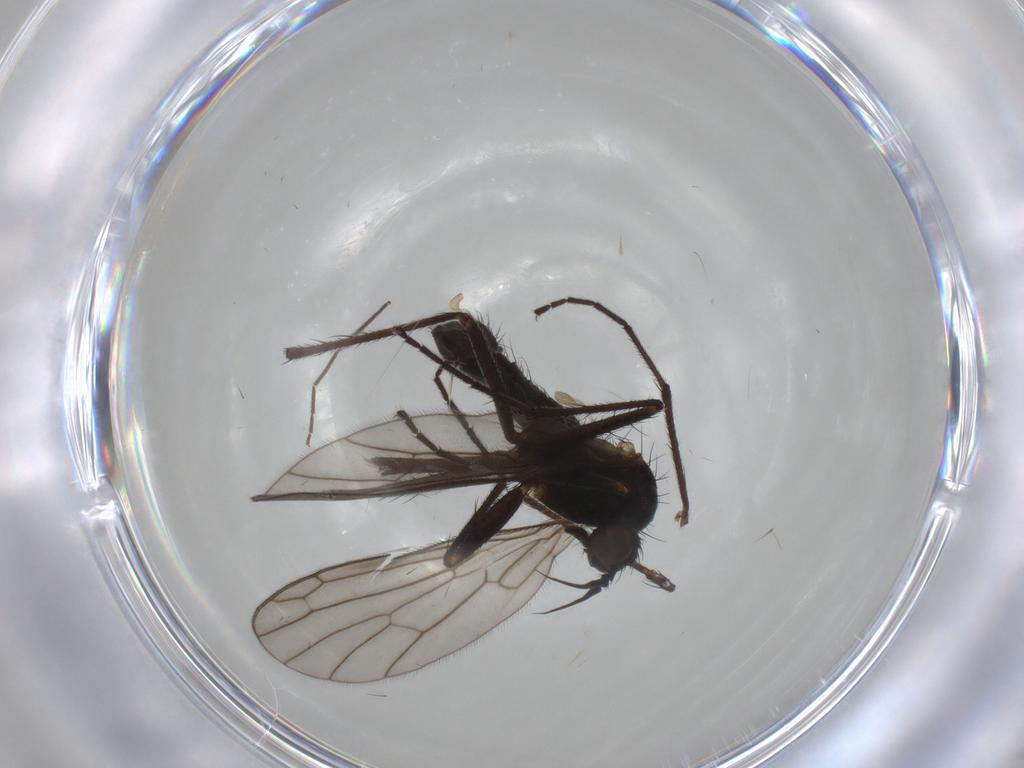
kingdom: Animalia
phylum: Arthropoda
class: Insecta
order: Diptera
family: Empididae
